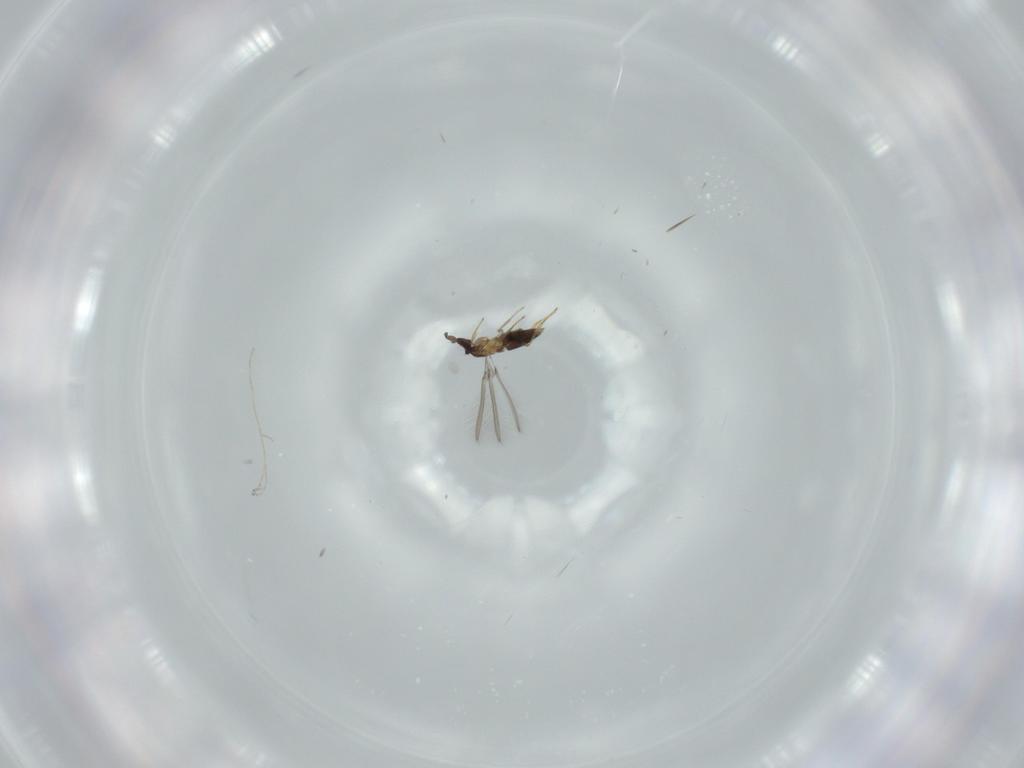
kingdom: Animalia
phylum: Arthropoda
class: Insecta
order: Hymenoptera
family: Mymaridae
